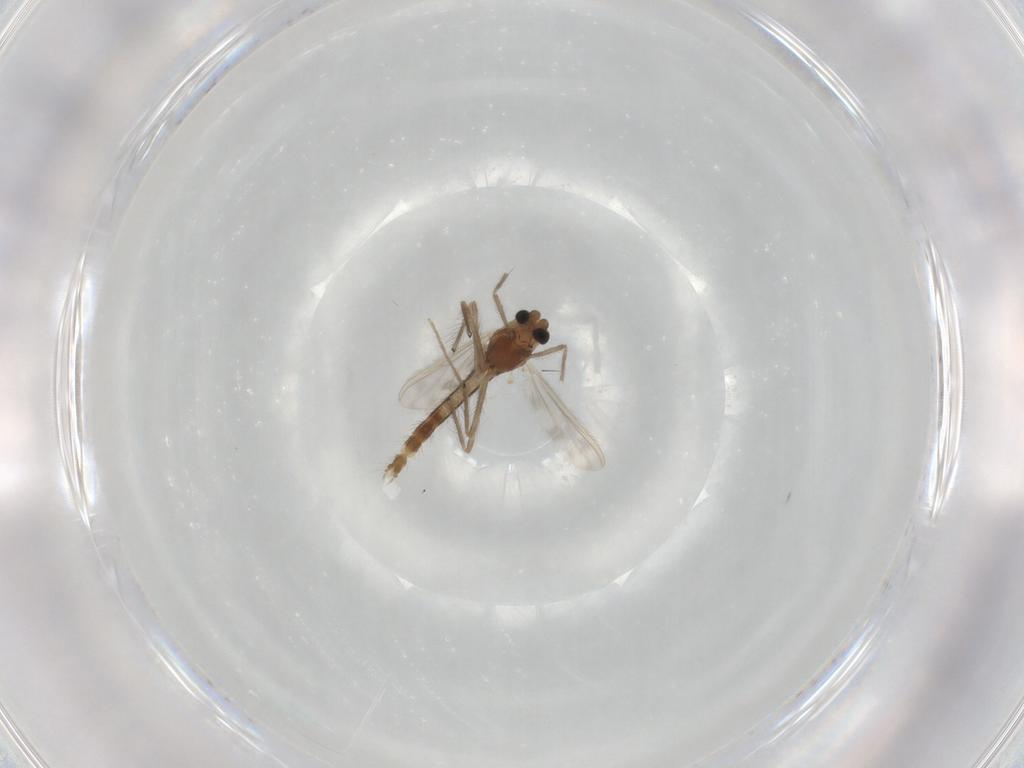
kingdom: Animalia
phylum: Arthropoda
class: Insecta
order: Diptera
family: Chironomidae
